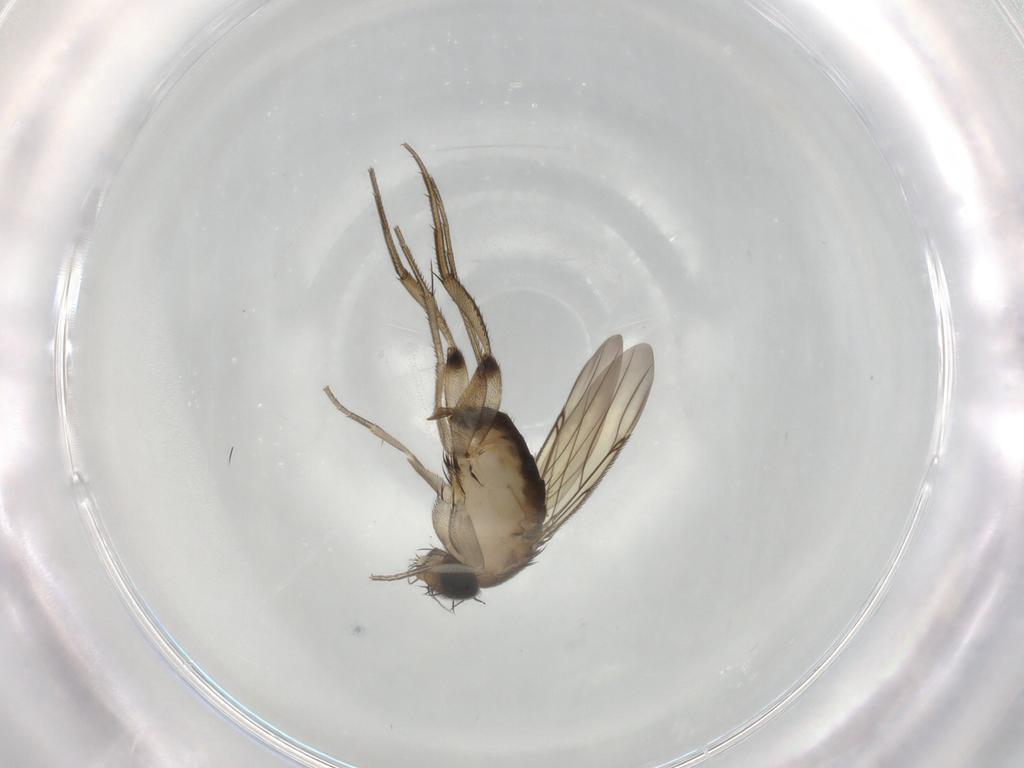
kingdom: Animalia
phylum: Arthropoda
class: Insecta
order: Diptera
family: Phoridae
